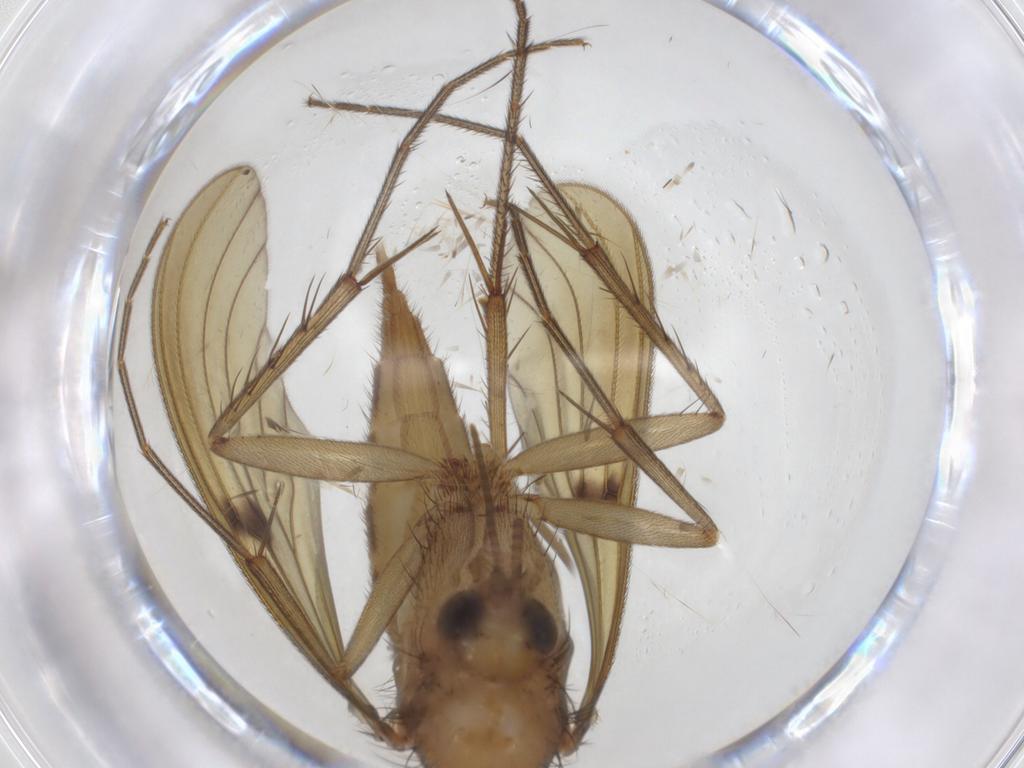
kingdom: Animalia
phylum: Arthropoda
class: Insecta
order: Diptera
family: Mycetophilidae
